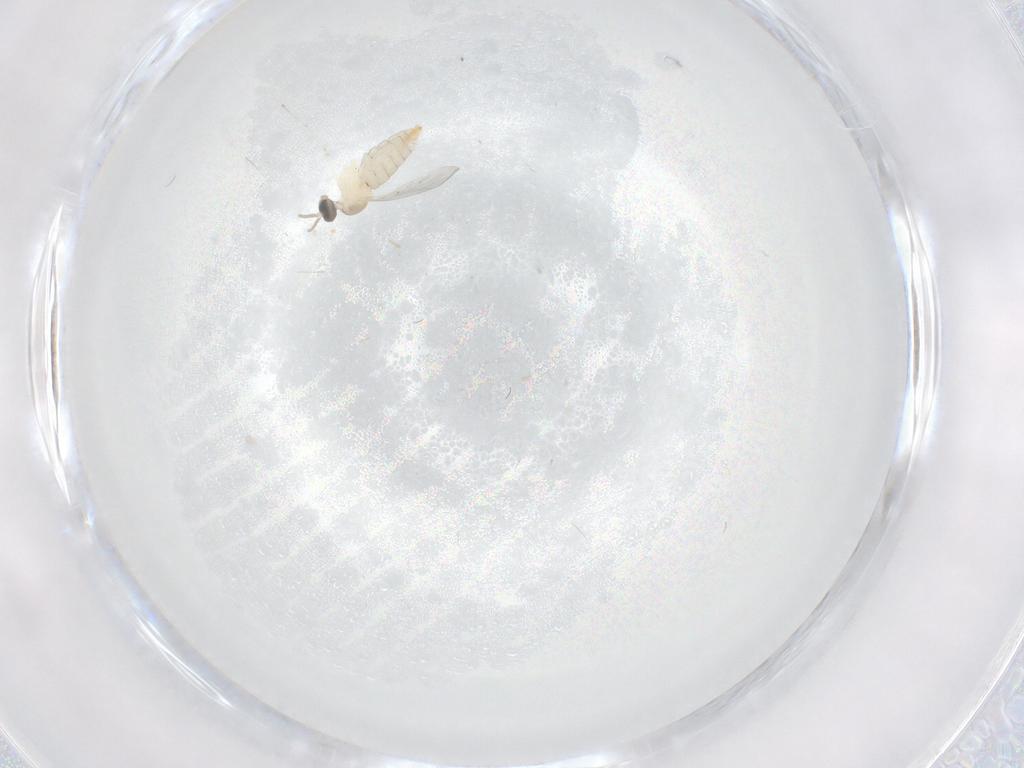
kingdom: Animalia
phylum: Arthropoda
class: Insecta
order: Diptera
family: Cecidomyiidae
